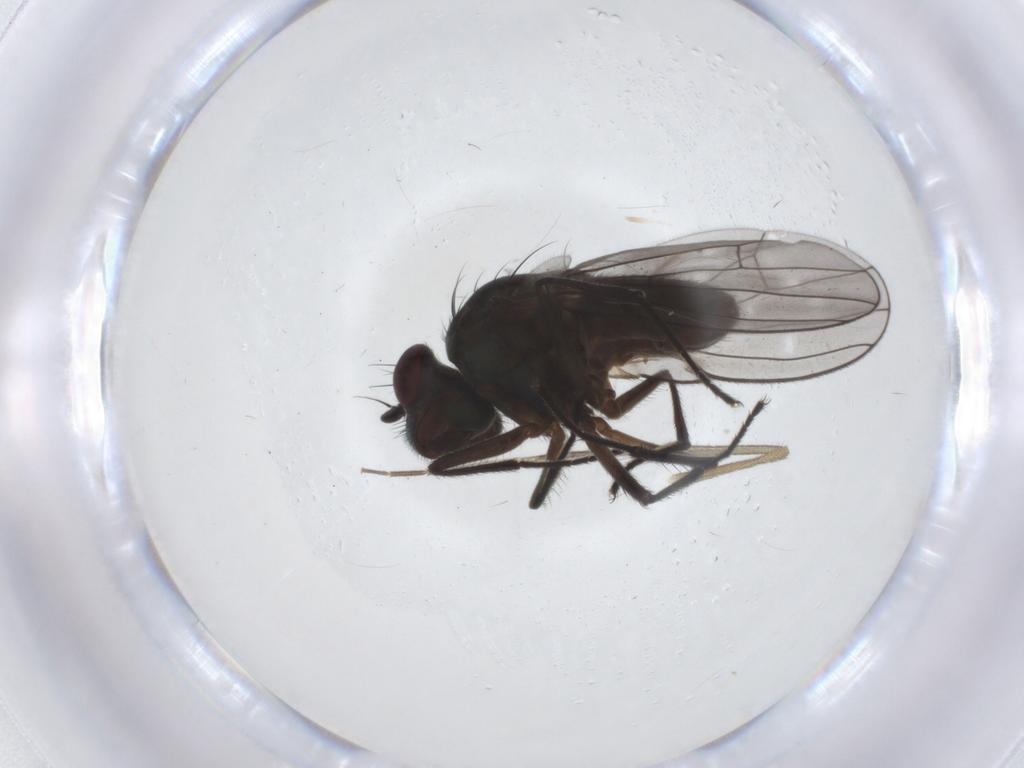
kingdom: Animalia
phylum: Arthropoda
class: Insecta
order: Diptera
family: Ephydridae
